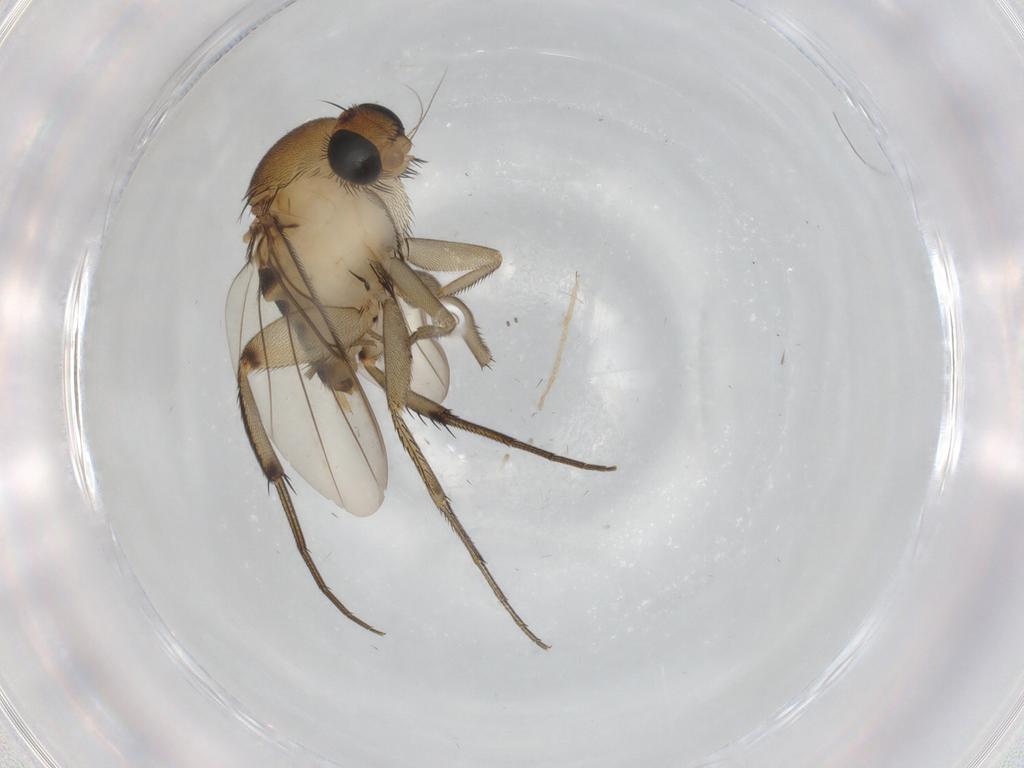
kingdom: Animalia
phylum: Arthropoda
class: Insecta
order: Diptera
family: Phoridae
